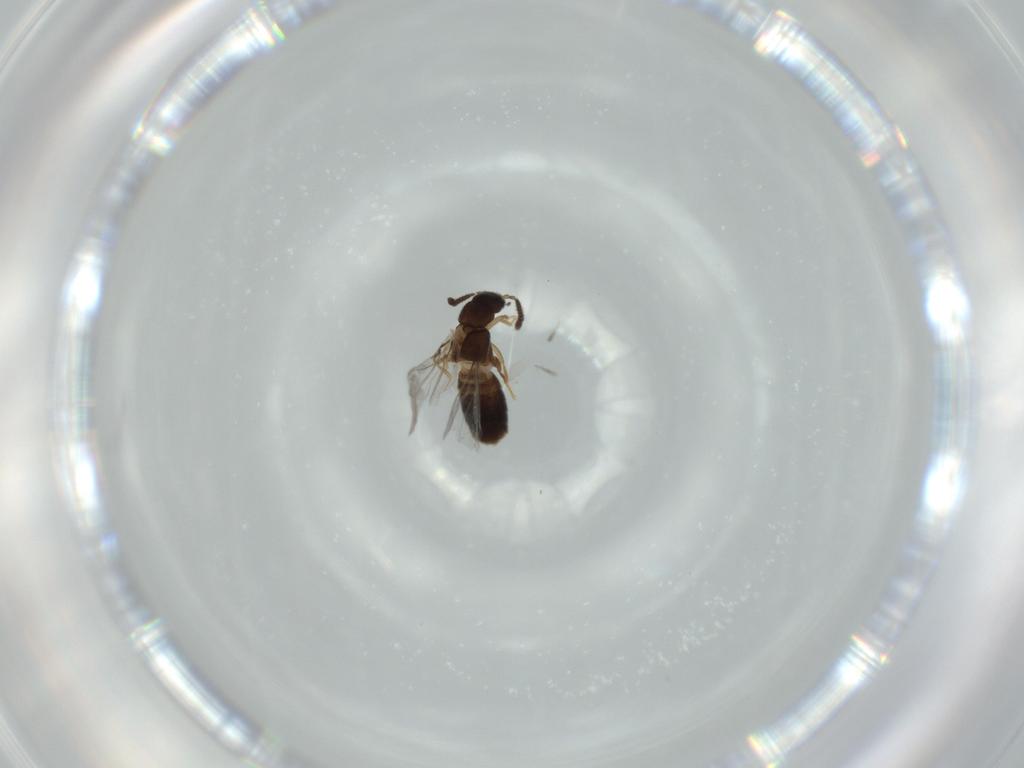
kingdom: Animalia
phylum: Arthropoda
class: Insecta
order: Coleoptera
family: Staphylinidae
